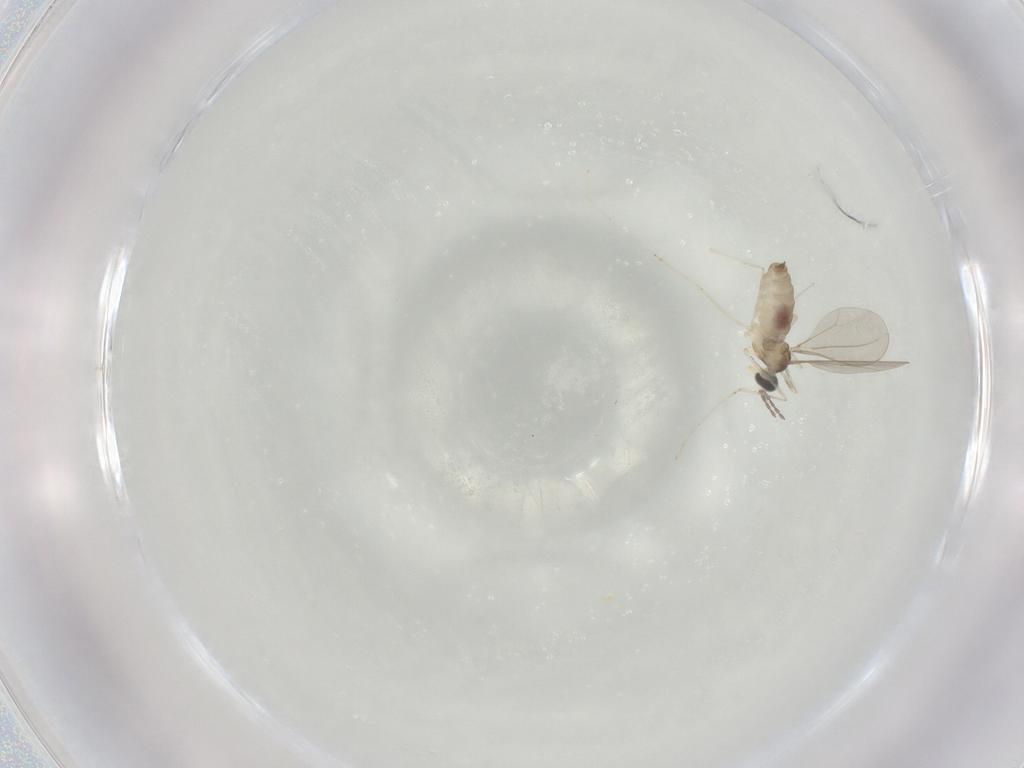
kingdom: Animalia
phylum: Arthropoda
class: Insecta
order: Diptera
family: Cecidomyiidae
